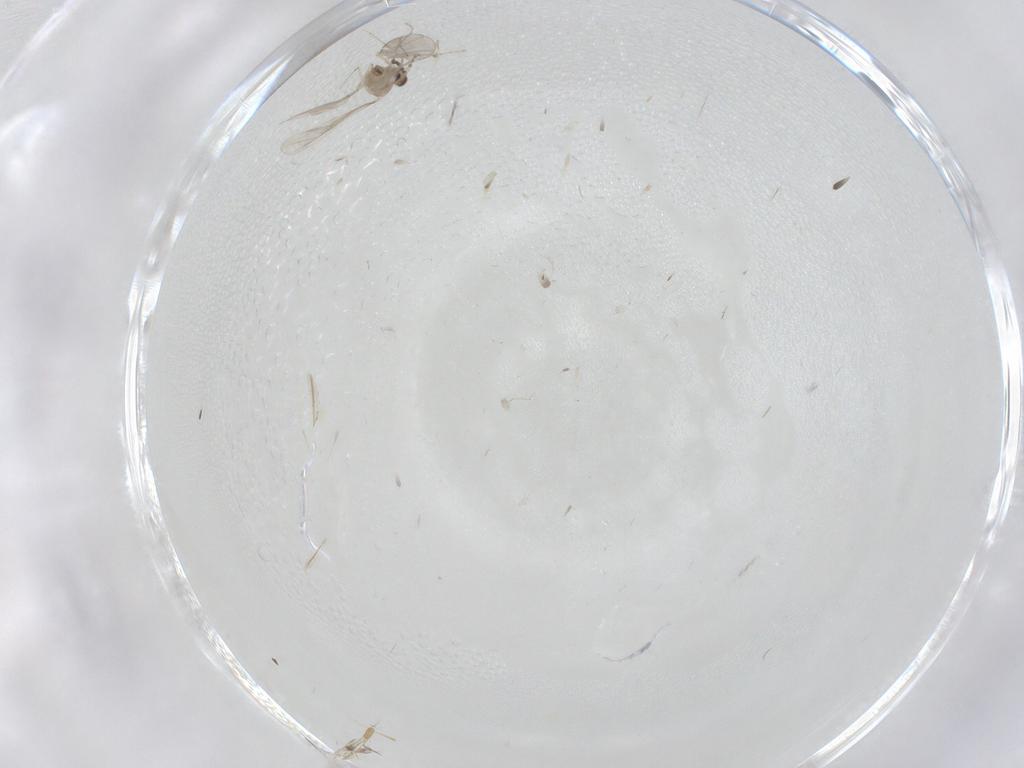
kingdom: Animalia
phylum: Arthropoda
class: Insecta
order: Diptera
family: Cecidomyiidae
